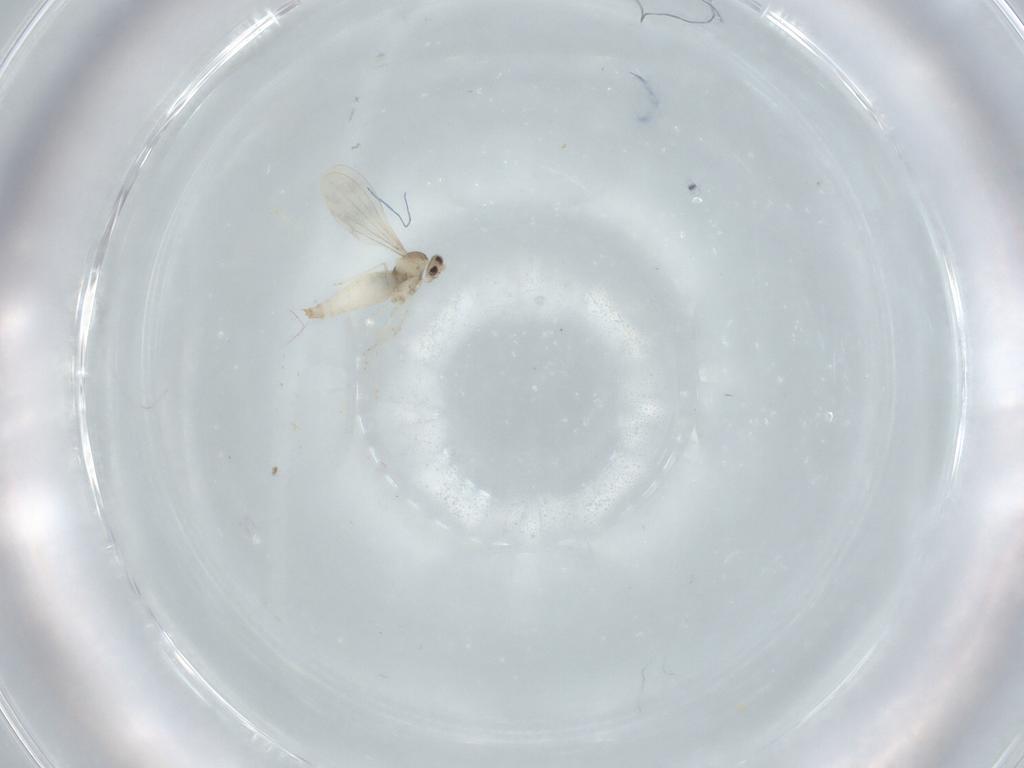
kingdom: Animalia
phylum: Arthropoda
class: Insecta
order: Diptera
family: Cecidomyiidae
